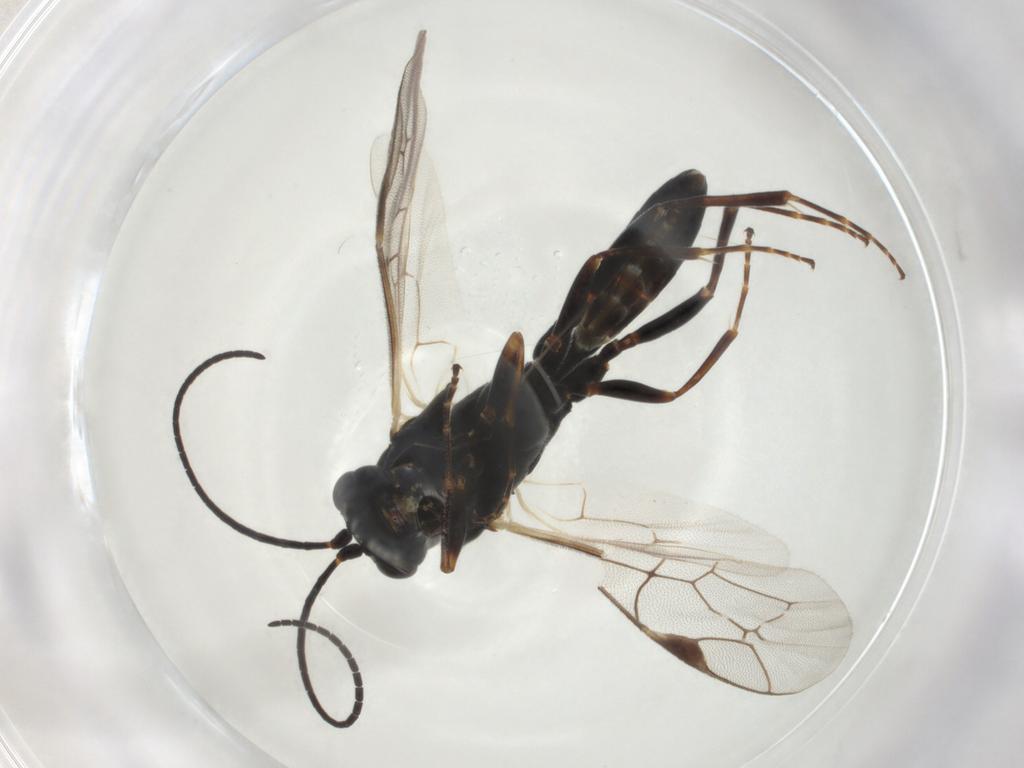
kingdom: Animalia
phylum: Arthropoda
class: Insecta
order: Hymenoptera
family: Ichneumonidae
